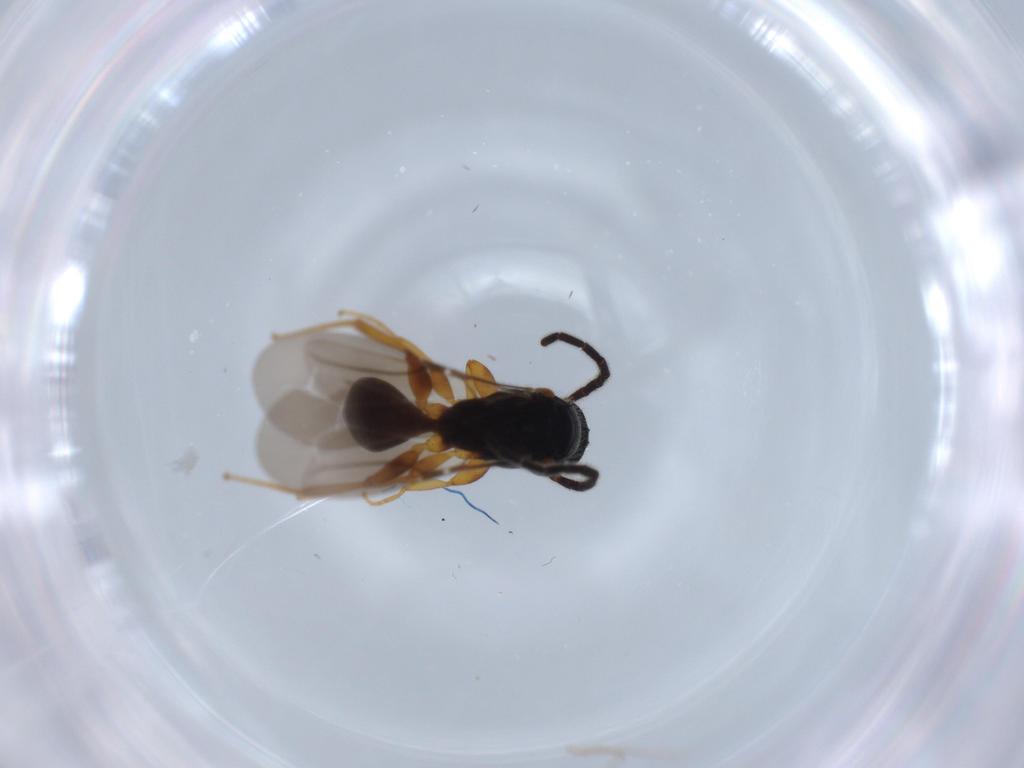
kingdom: Animalia
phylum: Arthropoda
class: Insecta
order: Hymenoptera
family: Bethylidae
